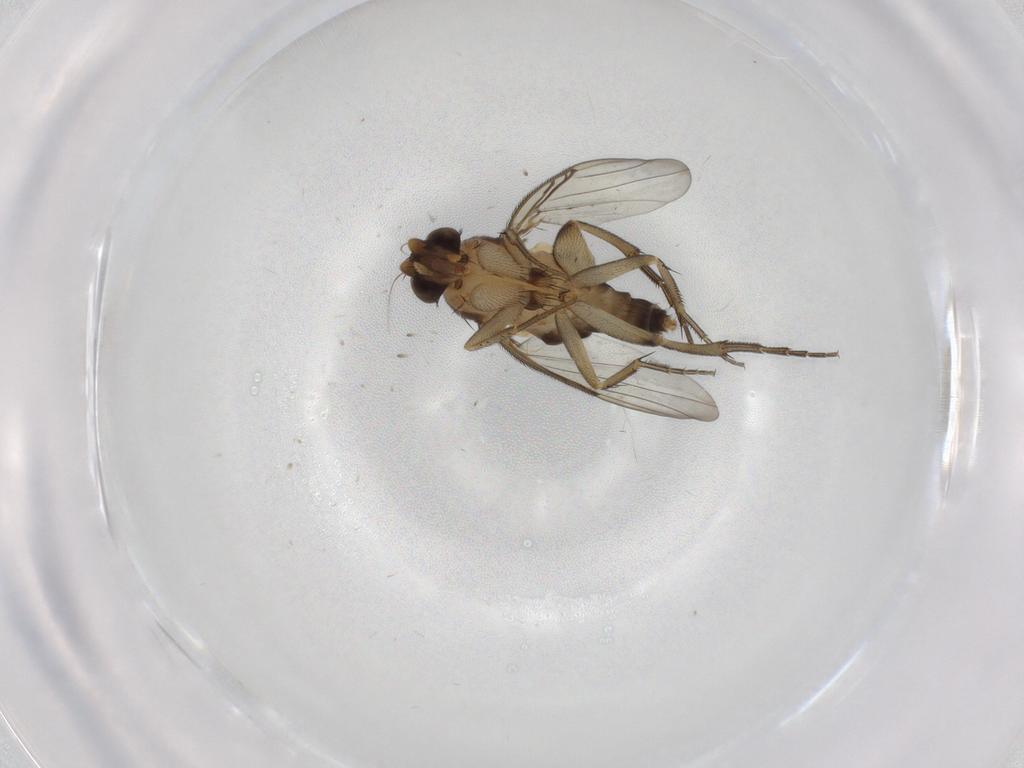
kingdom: Animalia
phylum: Arthropoda
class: Insecta
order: Diptera
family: Phoridae
